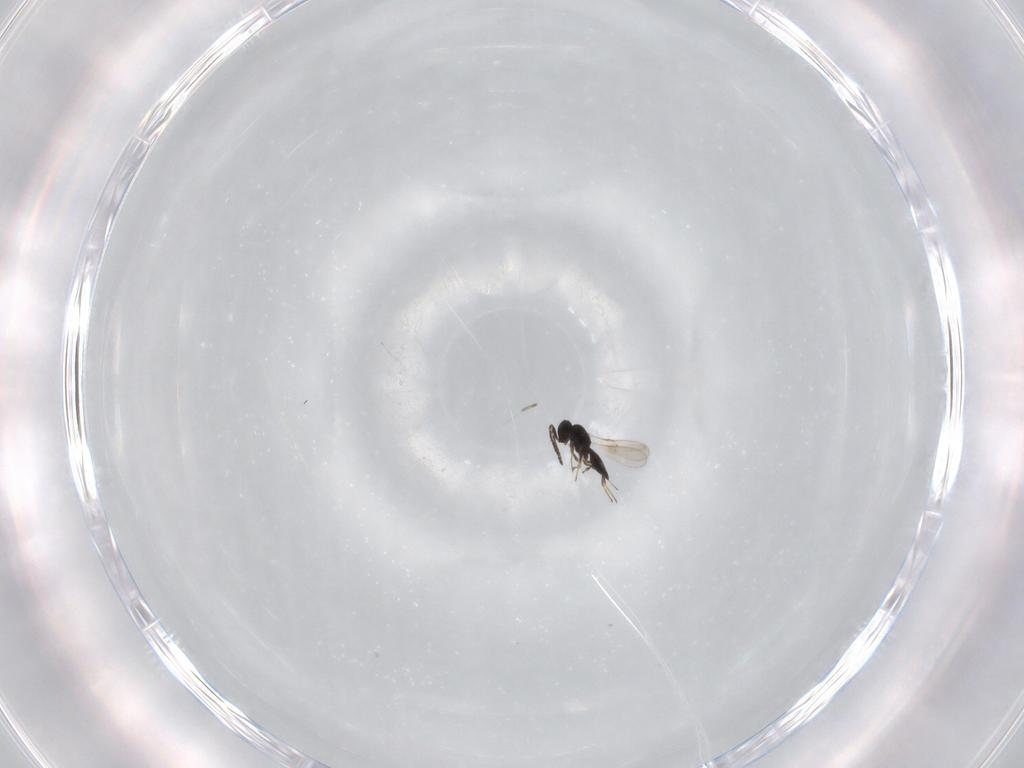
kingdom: Animalia
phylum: Arthropoda
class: Insecta
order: Hymenoptera
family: Scelionidae
